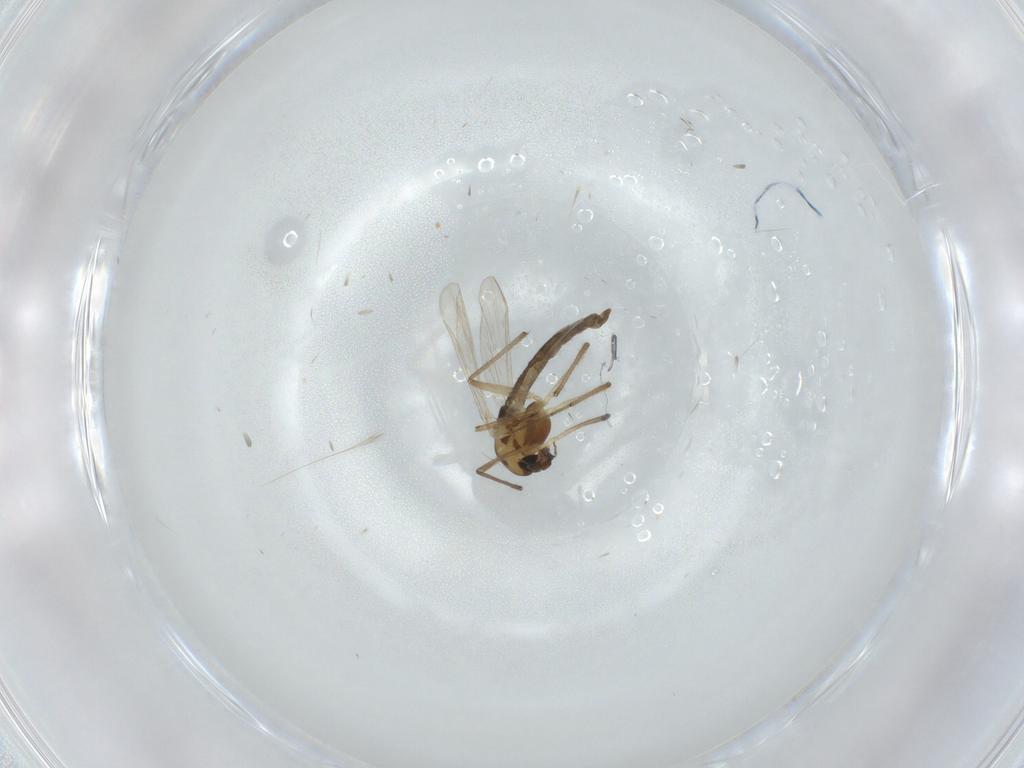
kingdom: Animalia
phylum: Arthropoda
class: Insecta
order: Diptera
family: Chironomidae
